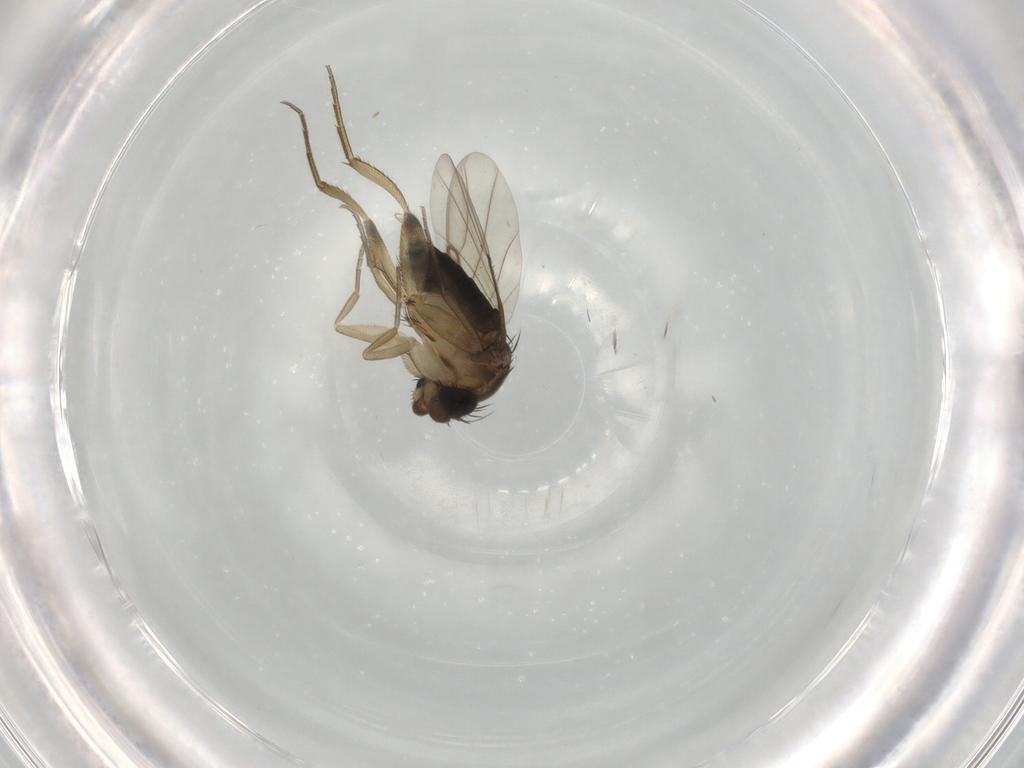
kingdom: Animalia
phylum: Arthropoda
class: Insecta
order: Diptera
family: Phoridae
